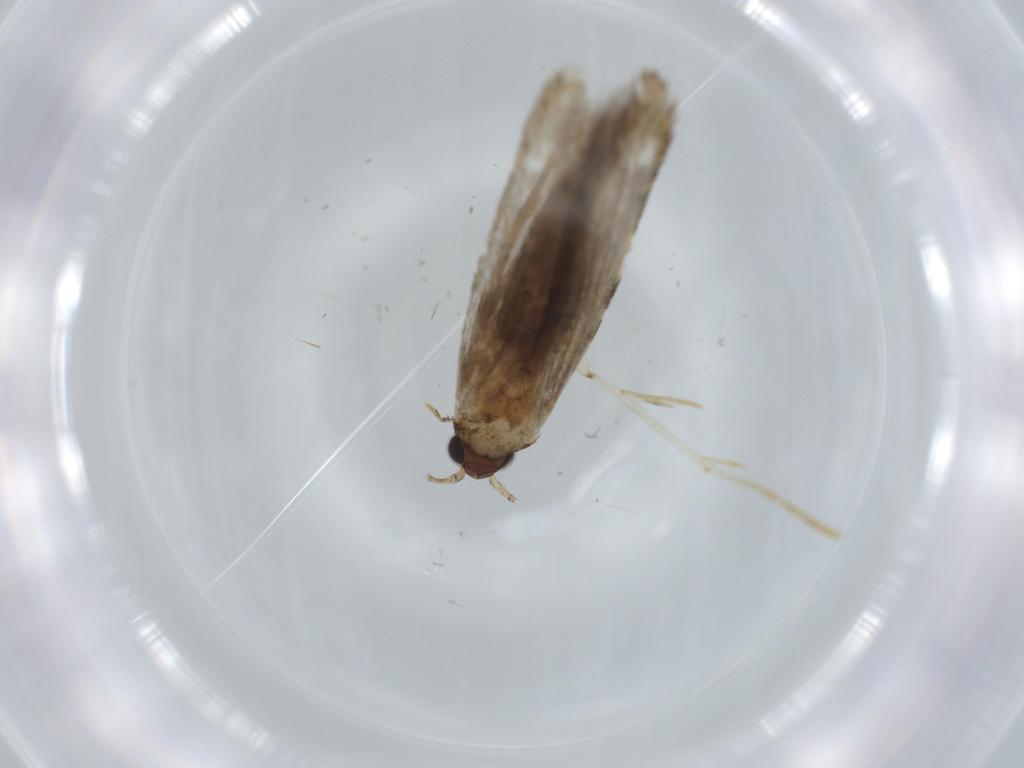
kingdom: Animalia
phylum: Arthropoda
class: Insecta
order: Lepidoptera
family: Tineidae
